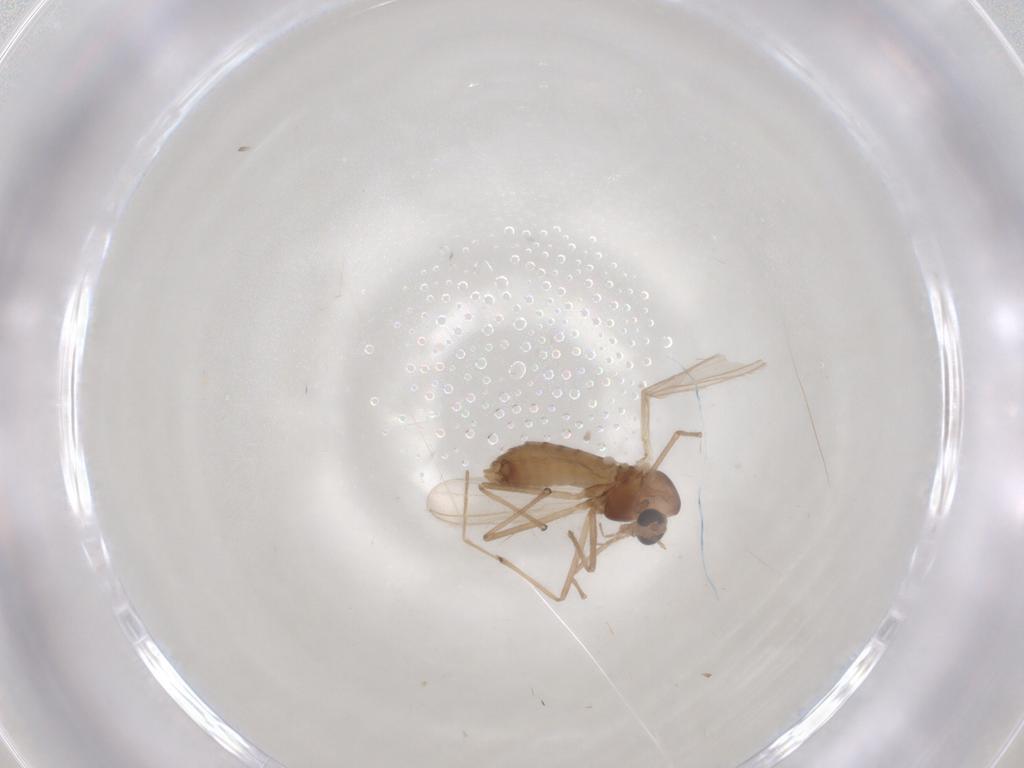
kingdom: Animalia
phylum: Arthropoda
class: Insecta
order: Diptera
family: Chironomidae
